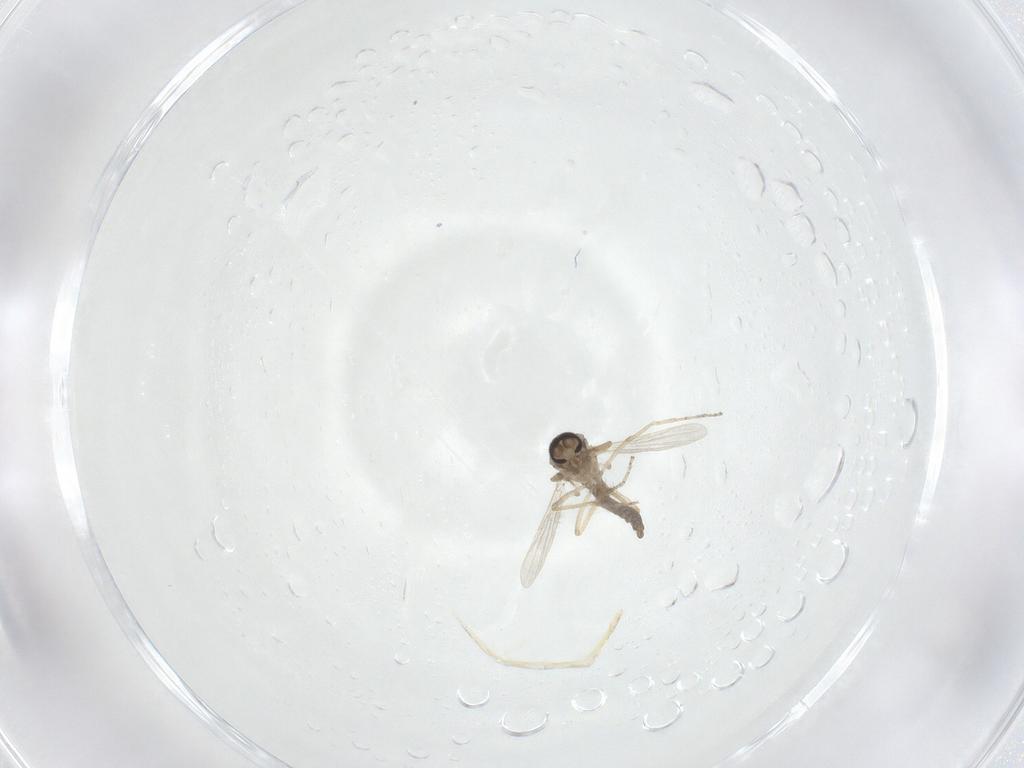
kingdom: Animalia
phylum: Arthropoda
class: Insecta
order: Diptera
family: Ceratopogonidae
